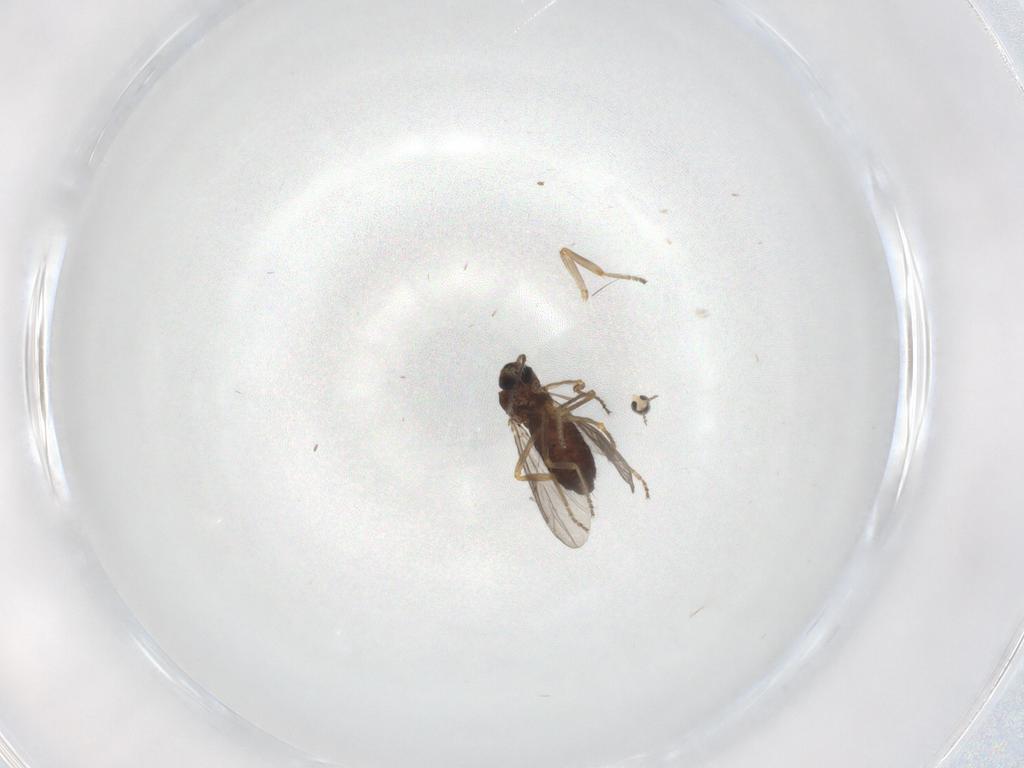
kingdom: Animalia
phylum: Arthropoda
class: Insecta
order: Diptera
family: Ceratopogonidae
